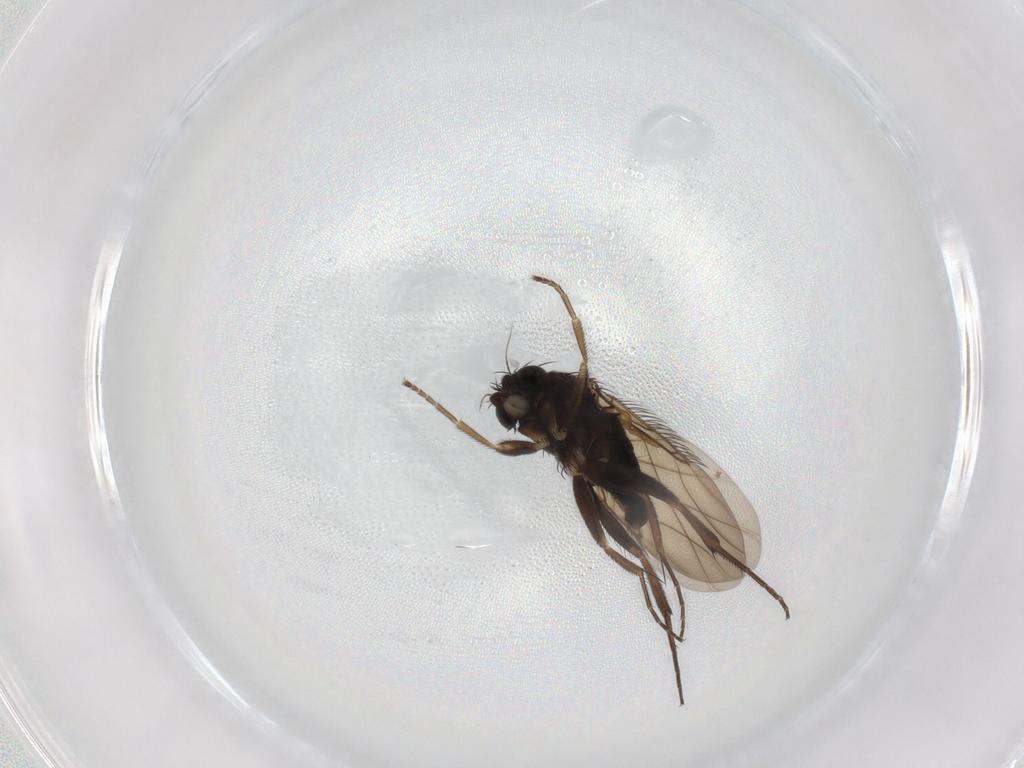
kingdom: Animalia
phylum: Arthropoda
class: Insecta
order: Diptera
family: Phoridae
